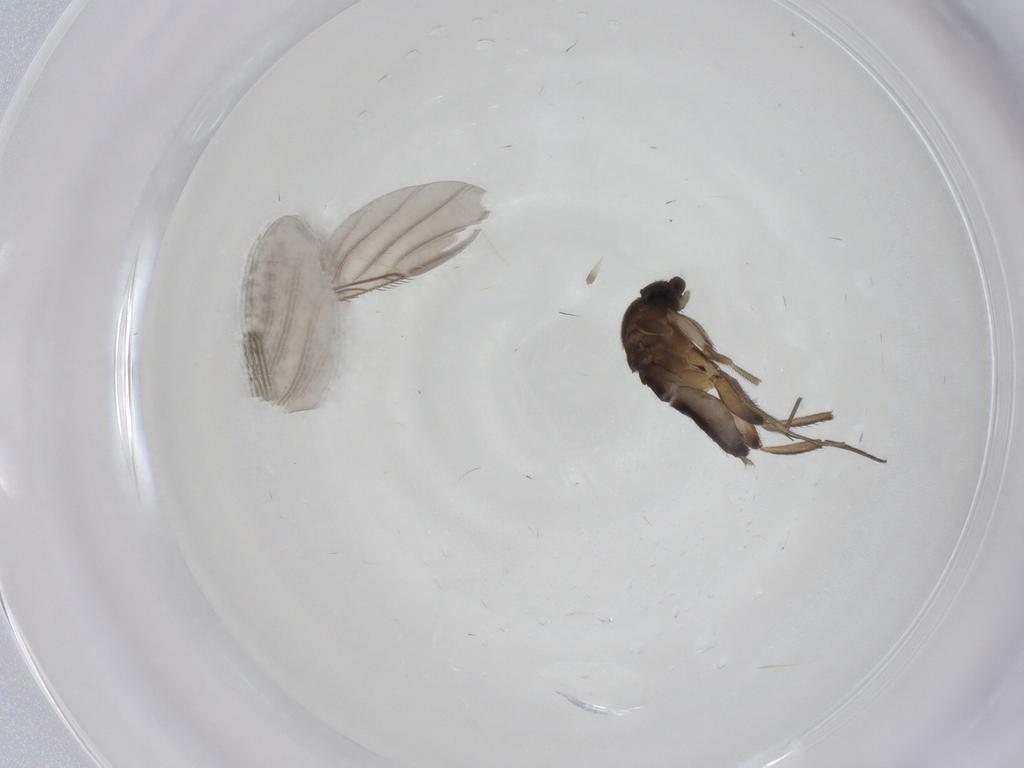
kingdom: Animalia
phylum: Arthropoda
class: Insecta
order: Diptera
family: Phoridae
